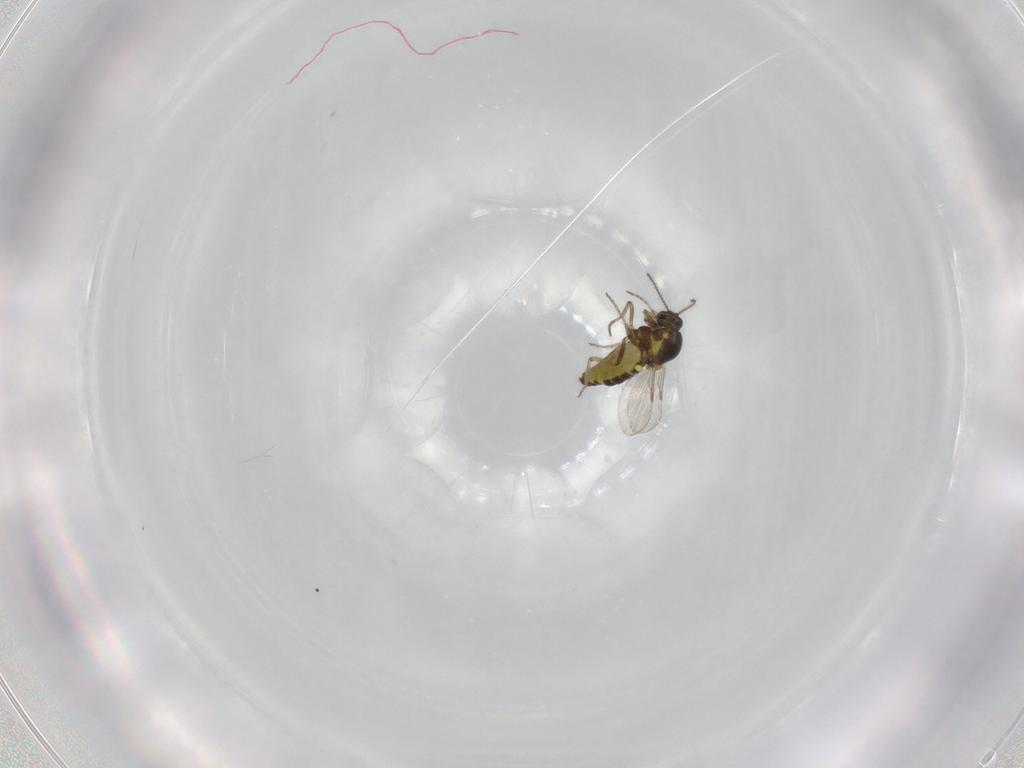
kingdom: Animalia
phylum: Arthropoda
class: Insecta
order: Diptera
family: Ceratopogonidae
